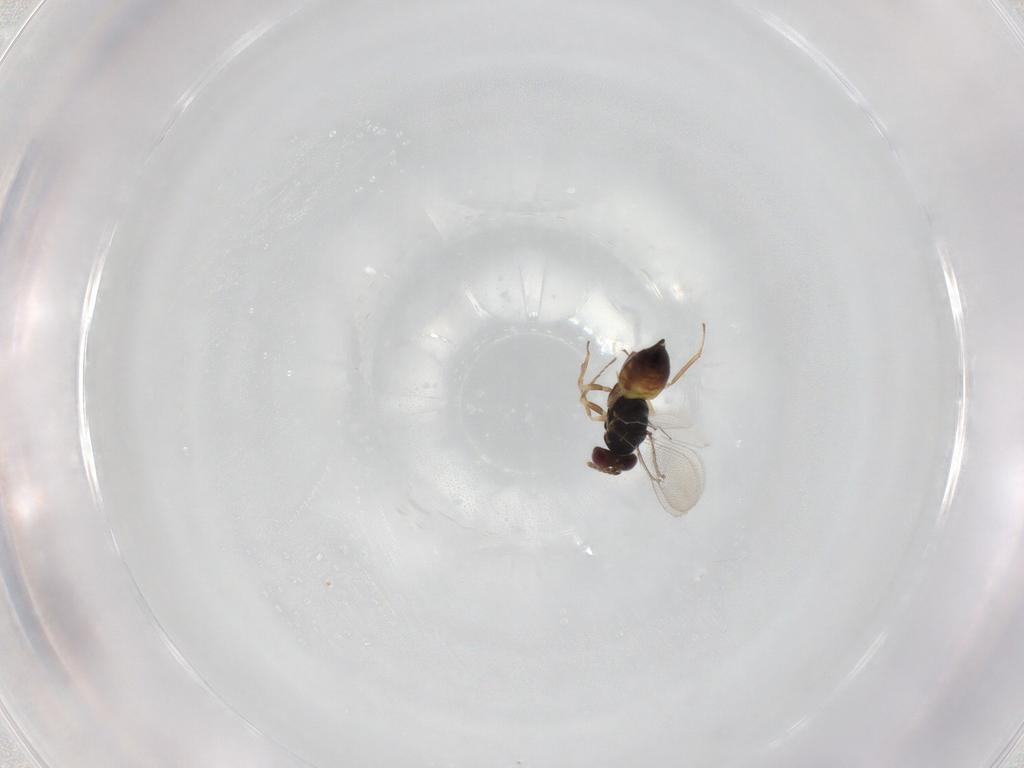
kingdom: Animalia
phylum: Arthropoda
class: Insecta
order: Hymenoptera
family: Eulophidae
